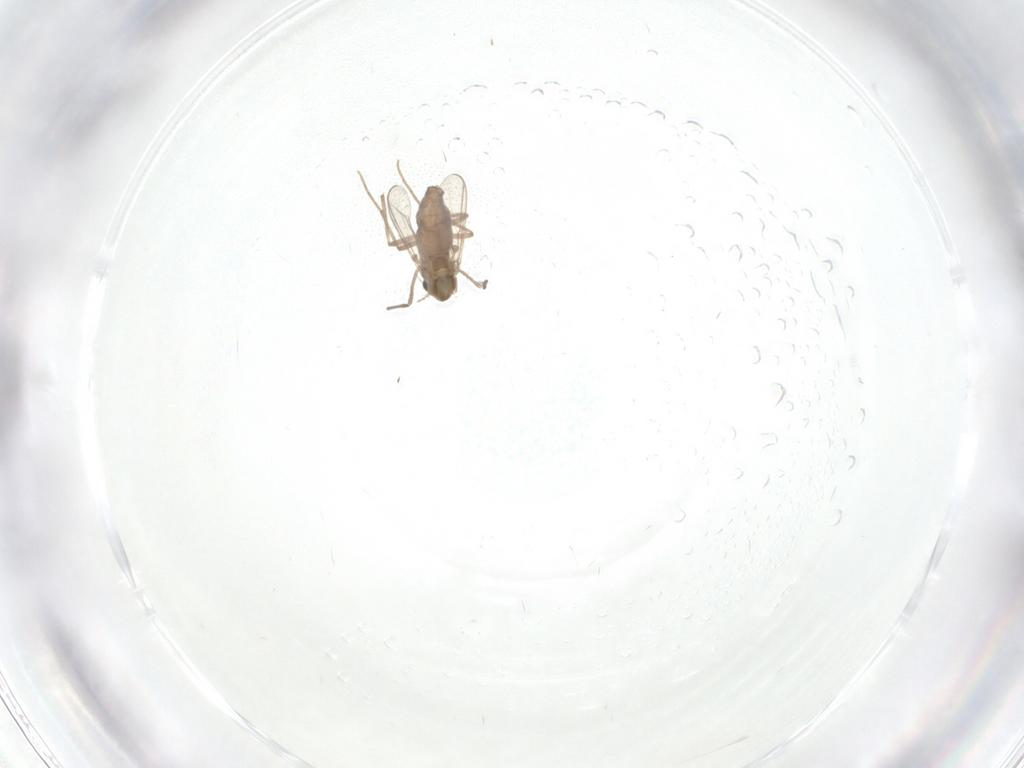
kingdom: Animalia
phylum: Arthropoda
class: Insecta
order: Diptera
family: Chironomidae
